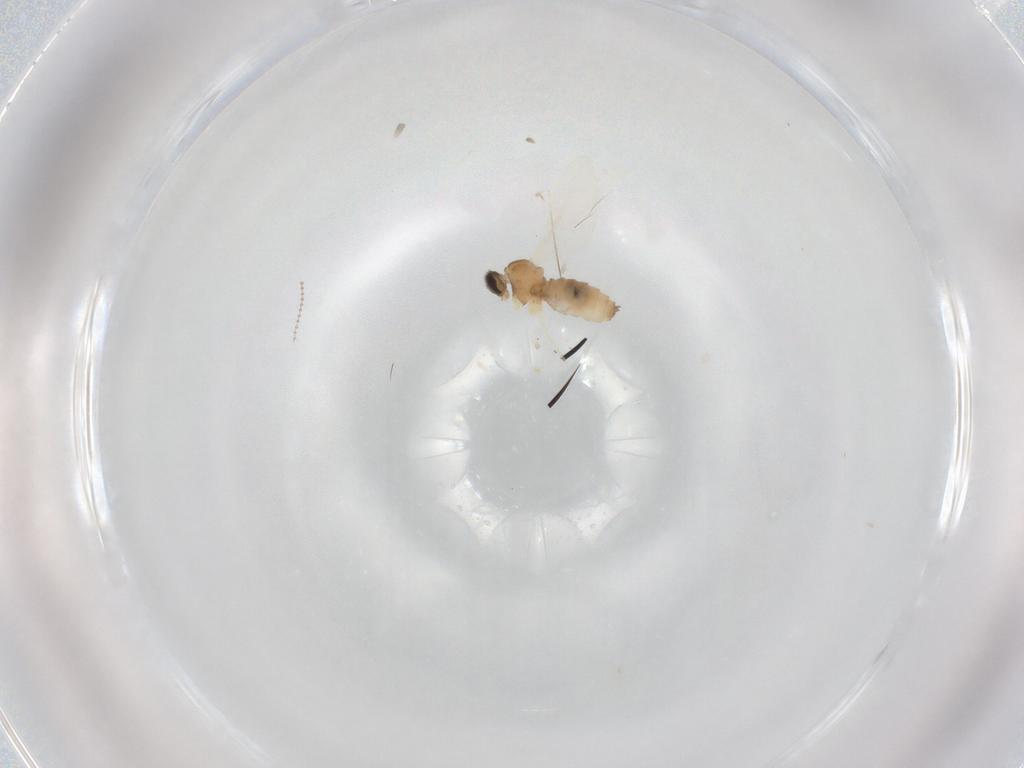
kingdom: Animalia
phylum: Arthropoda
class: Insecta
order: Diptera
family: Cecidomyiidae
